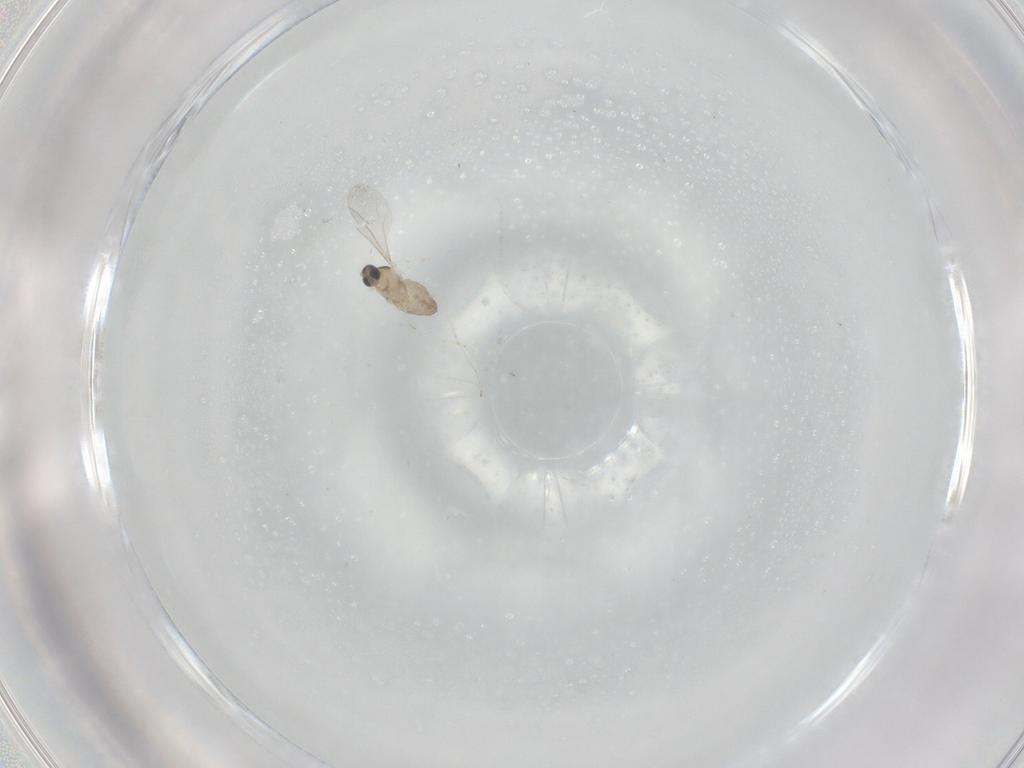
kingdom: Animalia
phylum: Arthropoda
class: Insecta
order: Diptera
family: Cecidomyiidae
